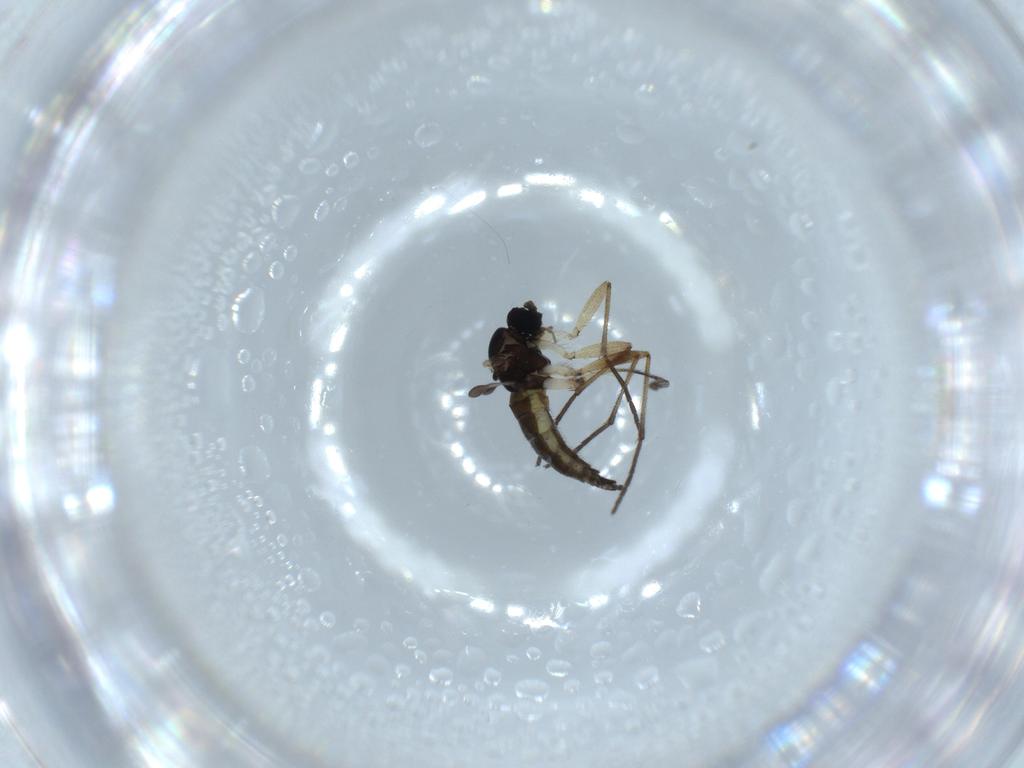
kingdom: Animalia
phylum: Arthropoda
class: Insecta
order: Diptera
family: Sciaridae
